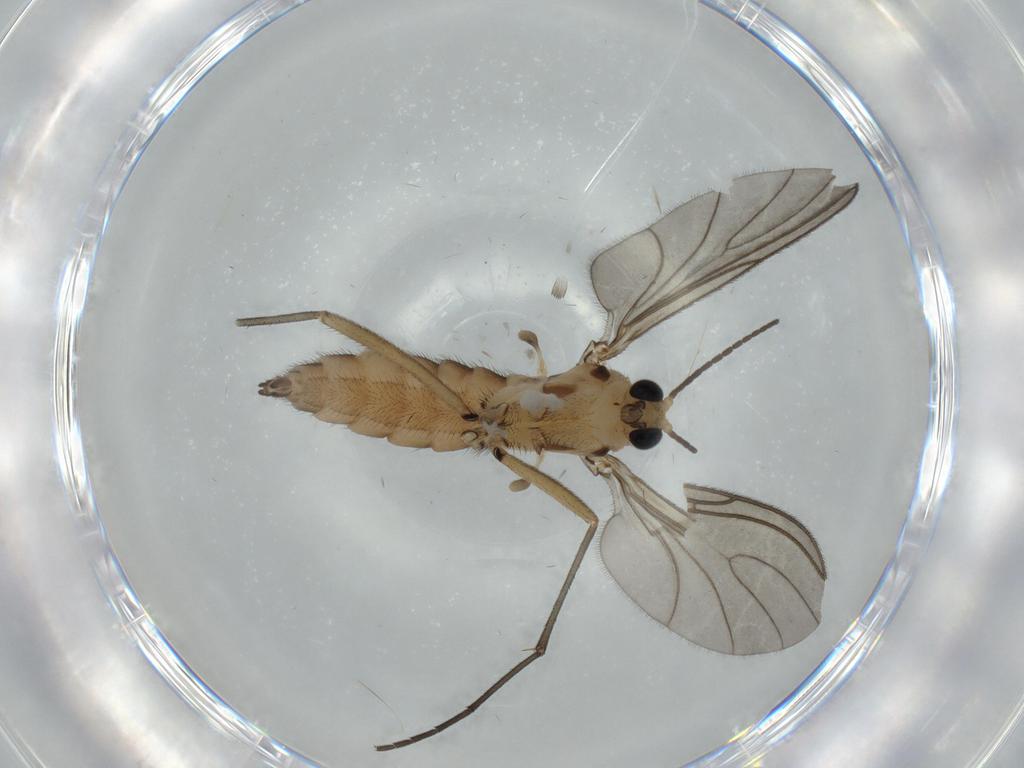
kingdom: Animalia
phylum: Arthropoda
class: Insecta
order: Diptera
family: Sciaridae
